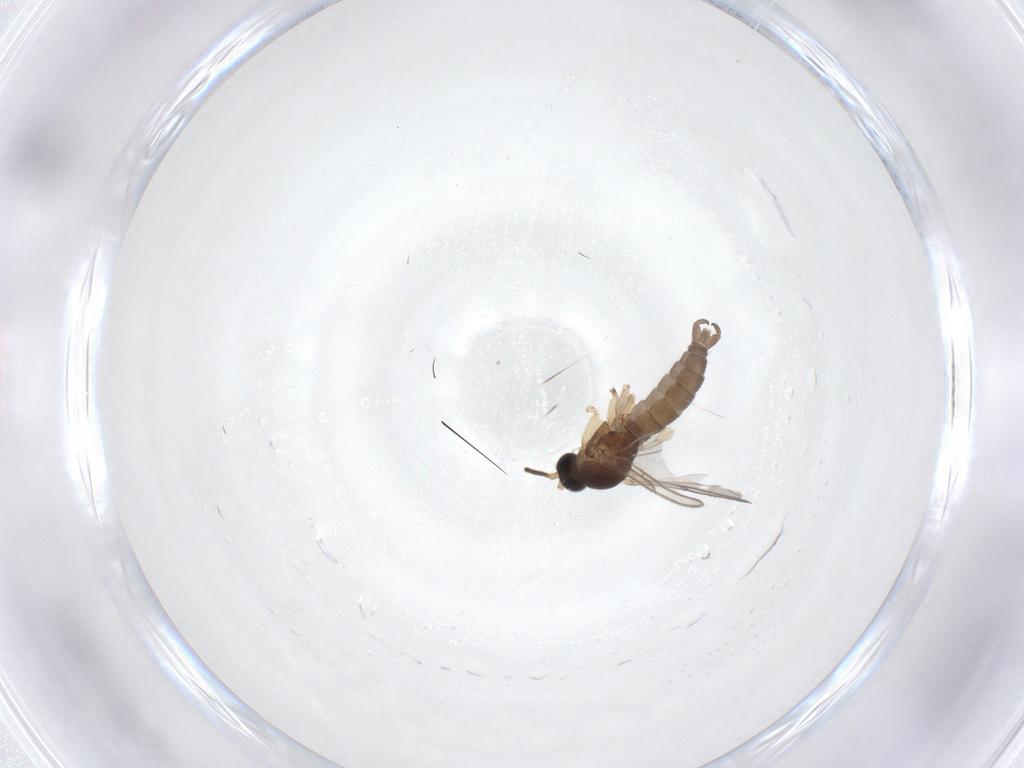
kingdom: Animalia
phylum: Arthropoda
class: Insecta
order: Diptera
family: Sciaridae
